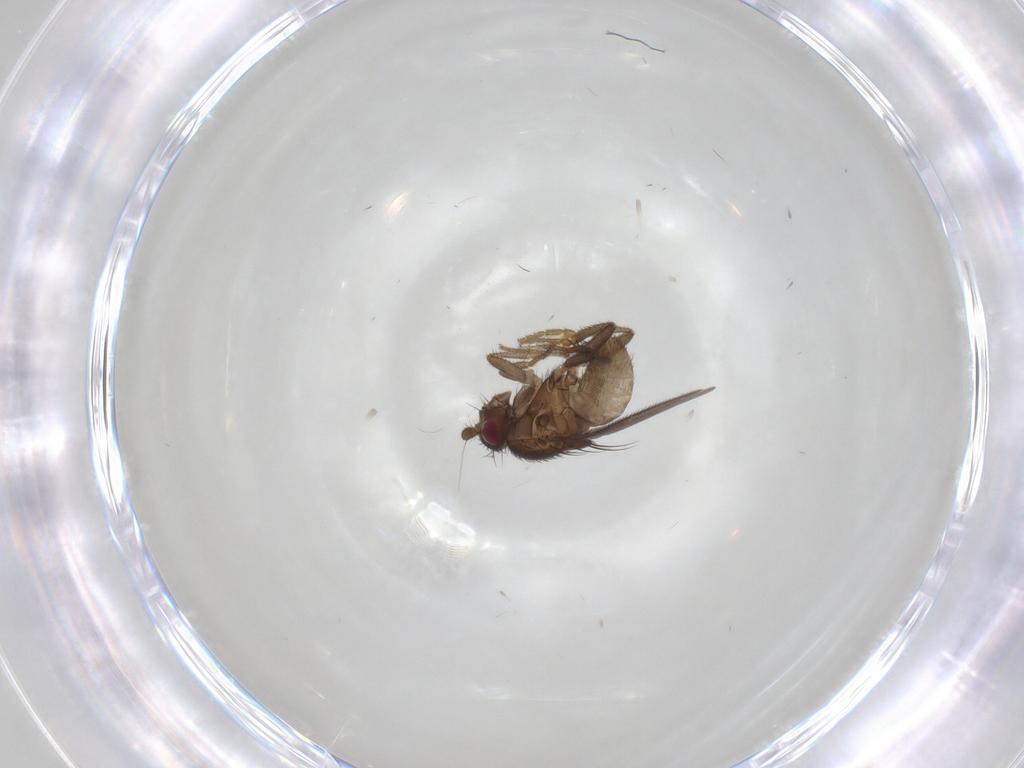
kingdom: Animalia
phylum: Arthropoda
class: Insecta
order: Diptera
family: Sphaeroceridae
